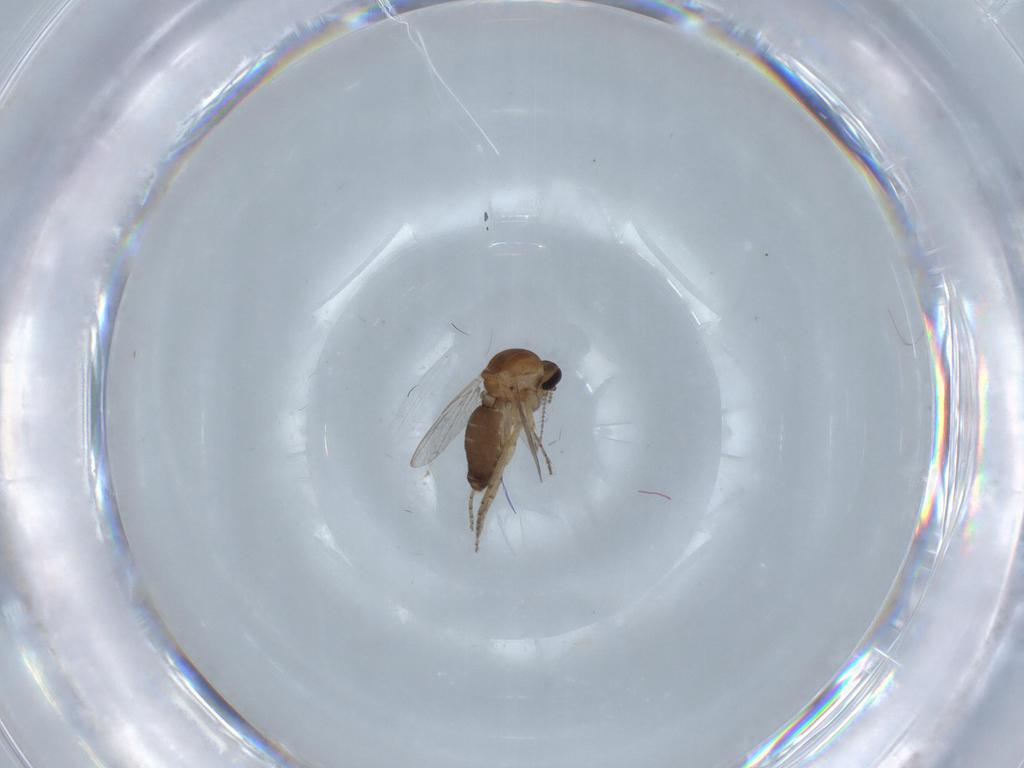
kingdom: Animalia
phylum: Arthropoda
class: Insecta
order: Diptera
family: Ceratopogonidae
